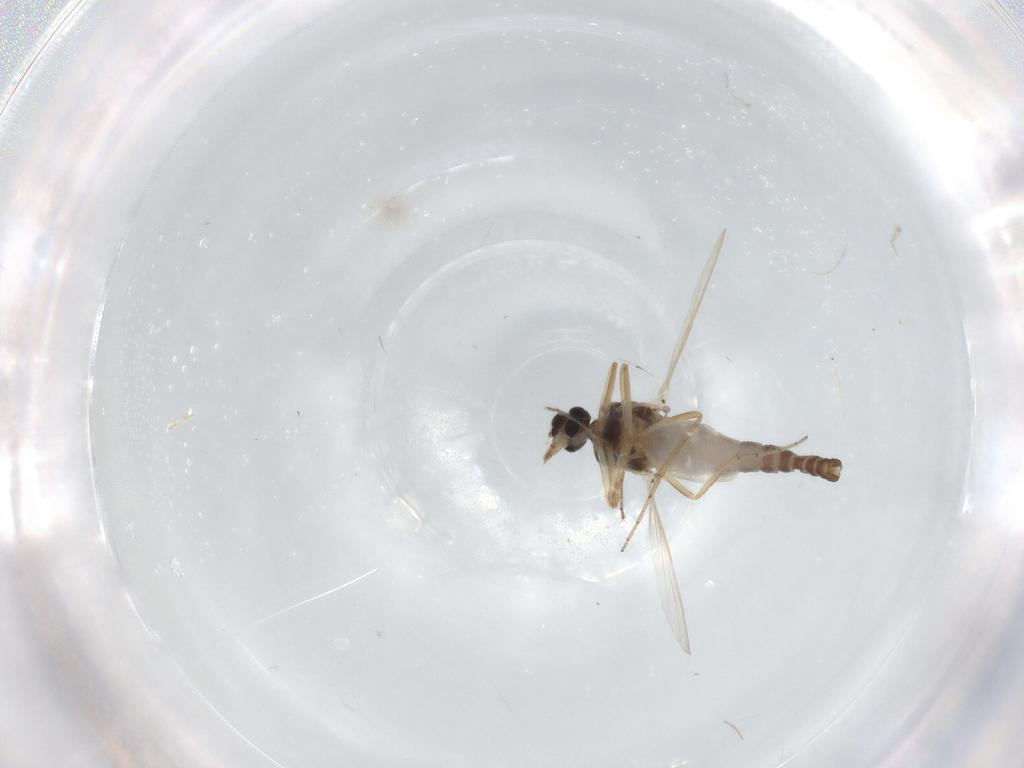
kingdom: Animalia
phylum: Arthropoda
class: Insecta
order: Diptera
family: Ceratopogonidae
